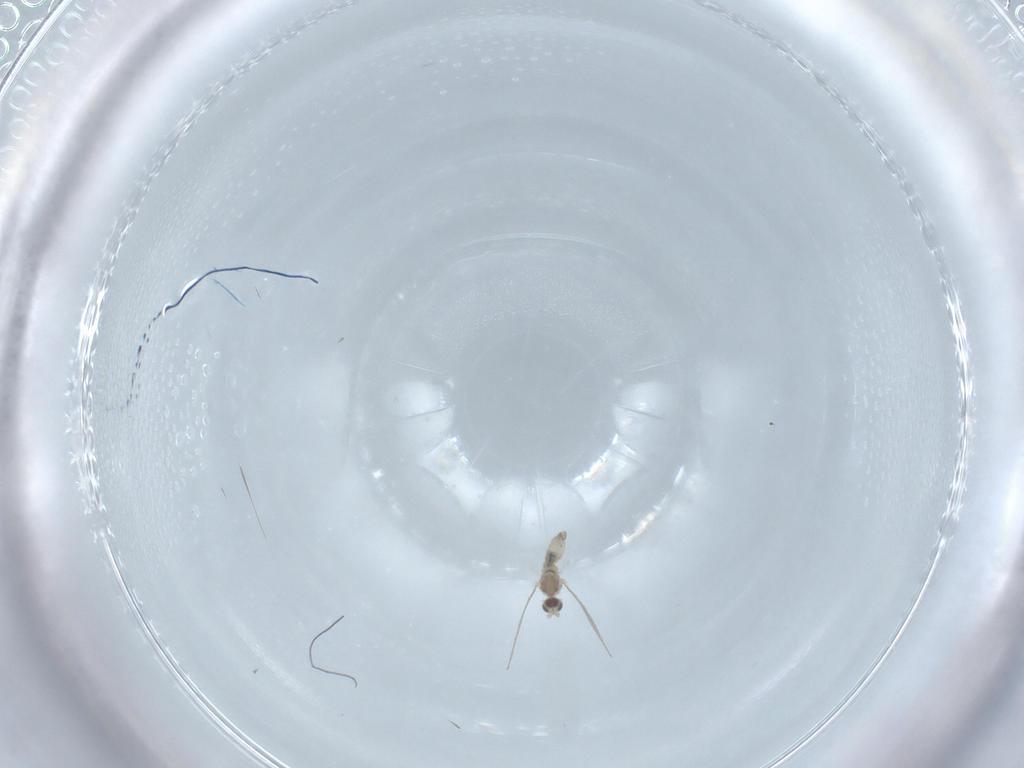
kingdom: Animalia
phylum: Arthropoda
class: Insecta
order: Diptera
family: Cecidomyiidae
